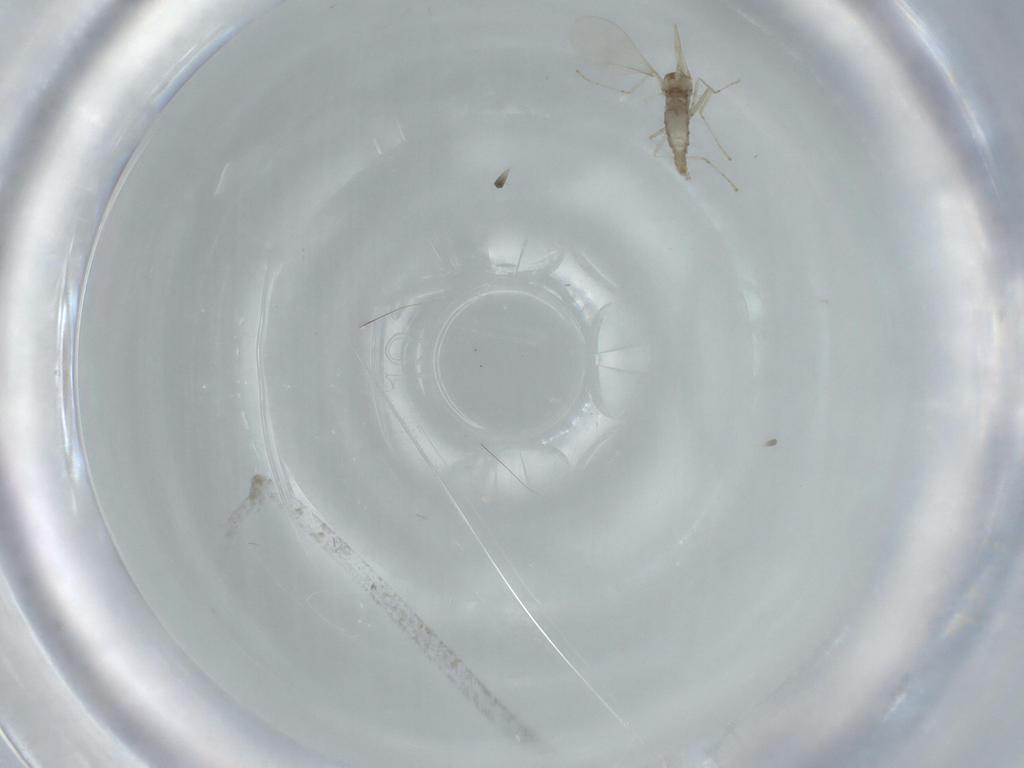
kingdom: Animalia
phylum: Arthropoda
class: Insecta
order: Diptera
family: Cecidomyiidae
